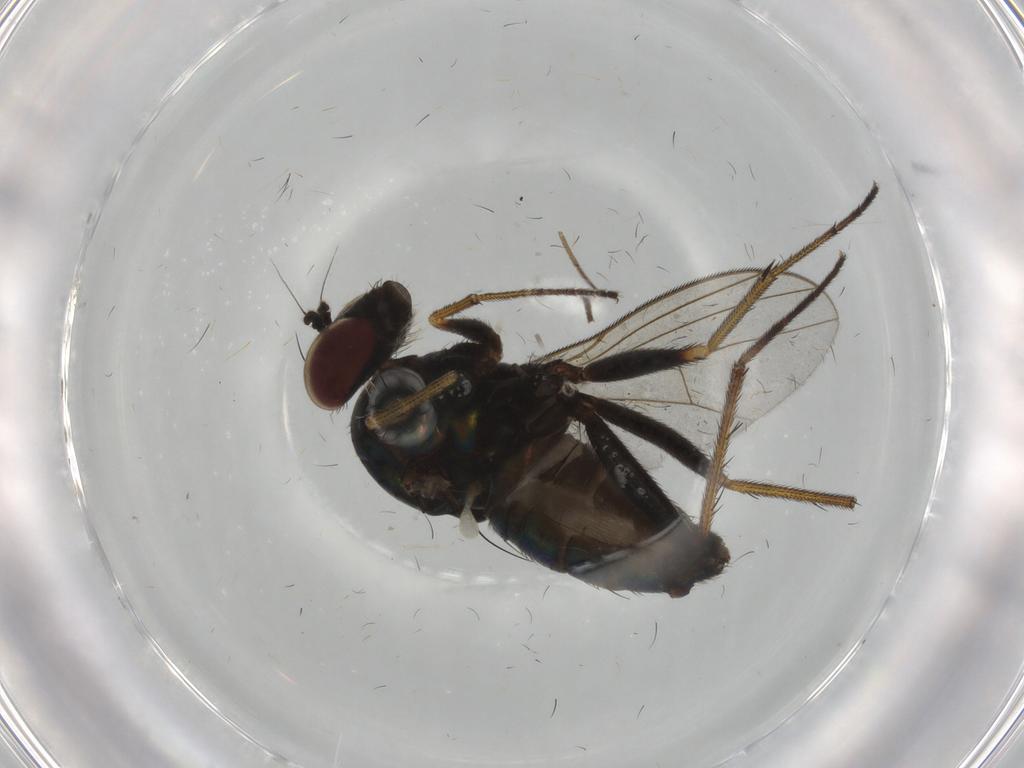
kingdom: Animalia
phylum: Arthropoda
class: Insecta
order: Diptera
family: Dolichopodidae
